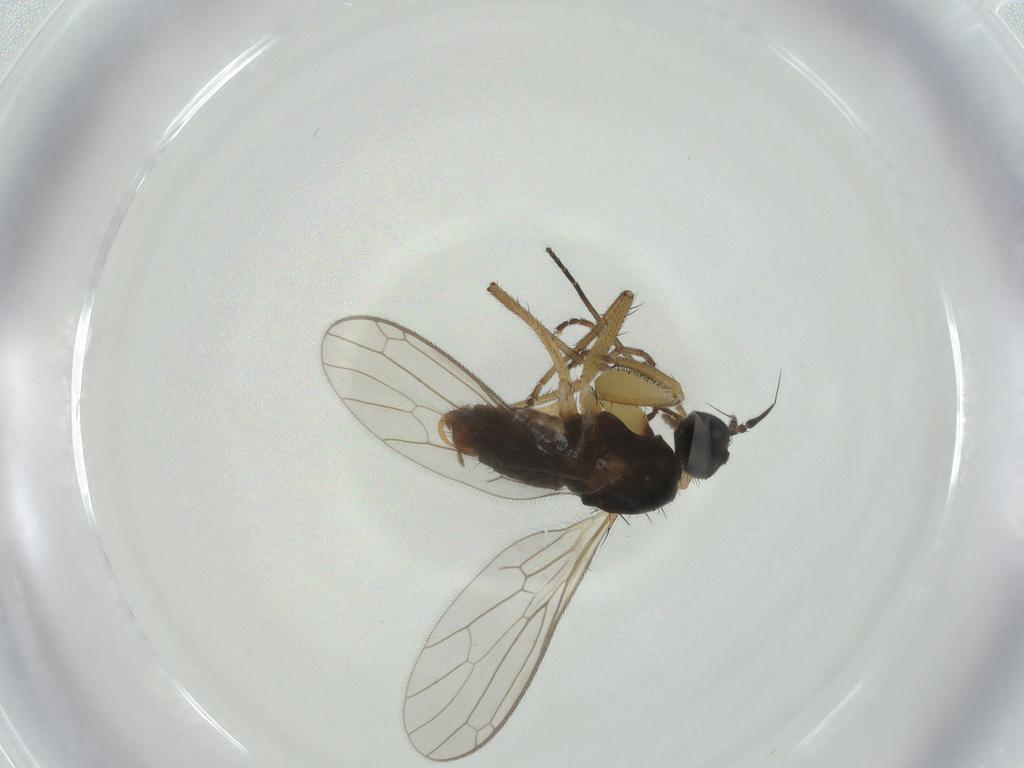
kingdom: Animalia
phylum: Arthropoda
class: Insecta
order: Diptera
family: Empididae
